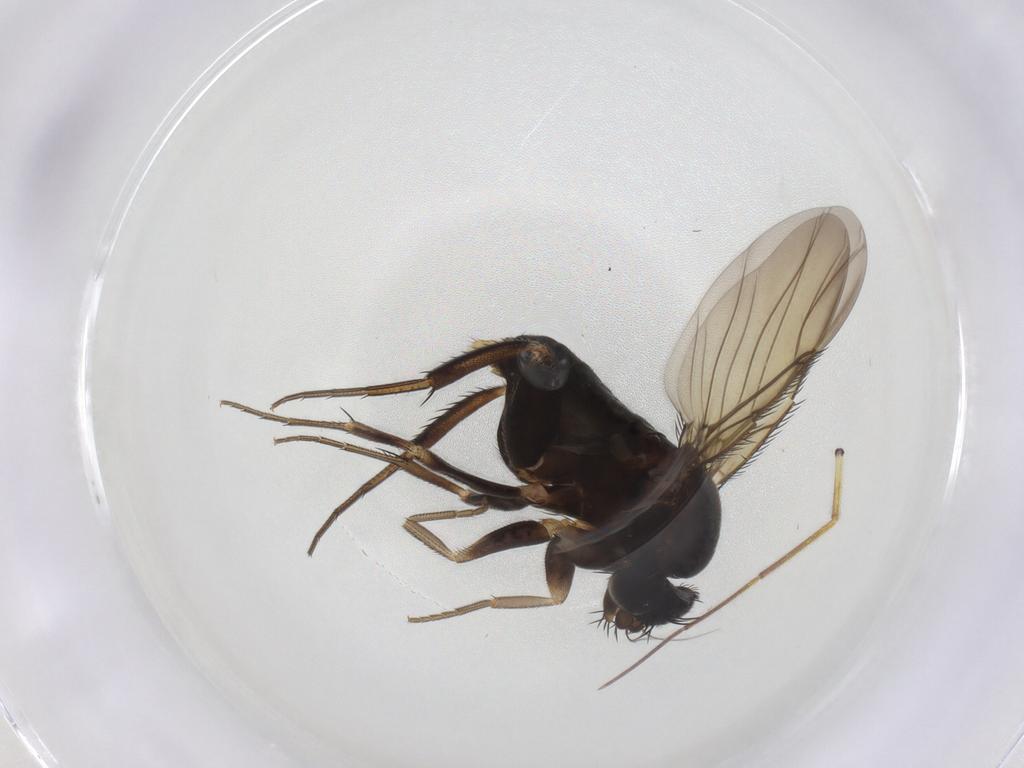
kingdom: Animalia
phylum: Arthropoda
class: Insecta
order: Diptera
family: Phoridae
